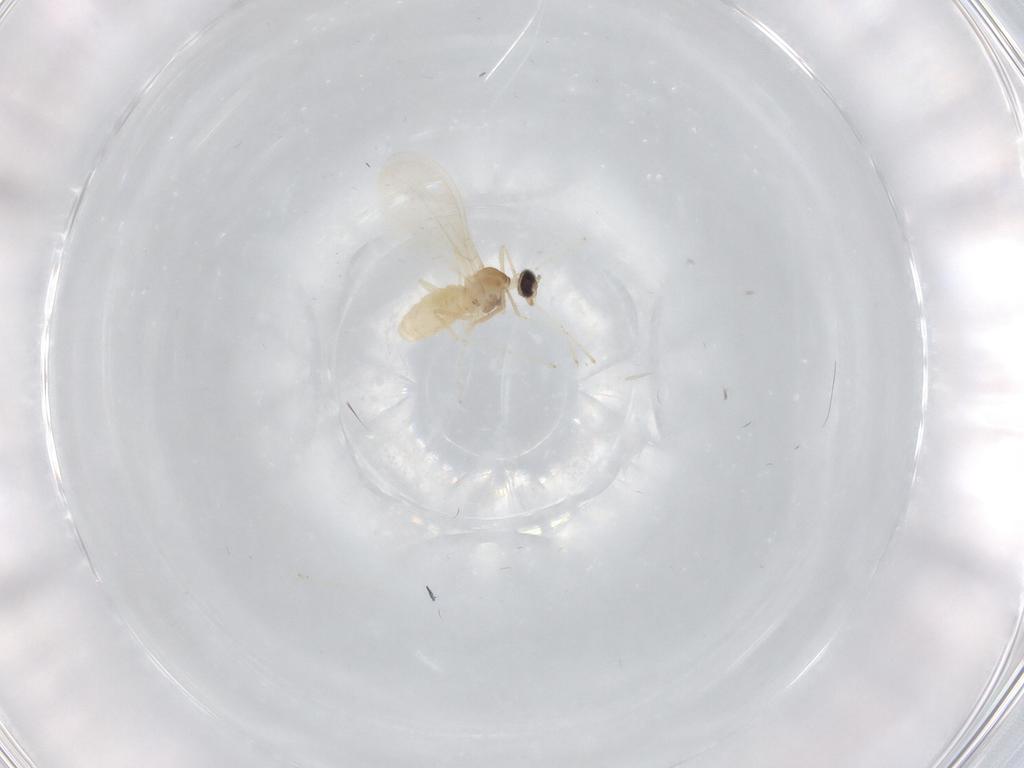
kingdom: Animalia
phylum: Arthropoda
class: Insecta
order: Diptera
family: Cecidomyiidae
